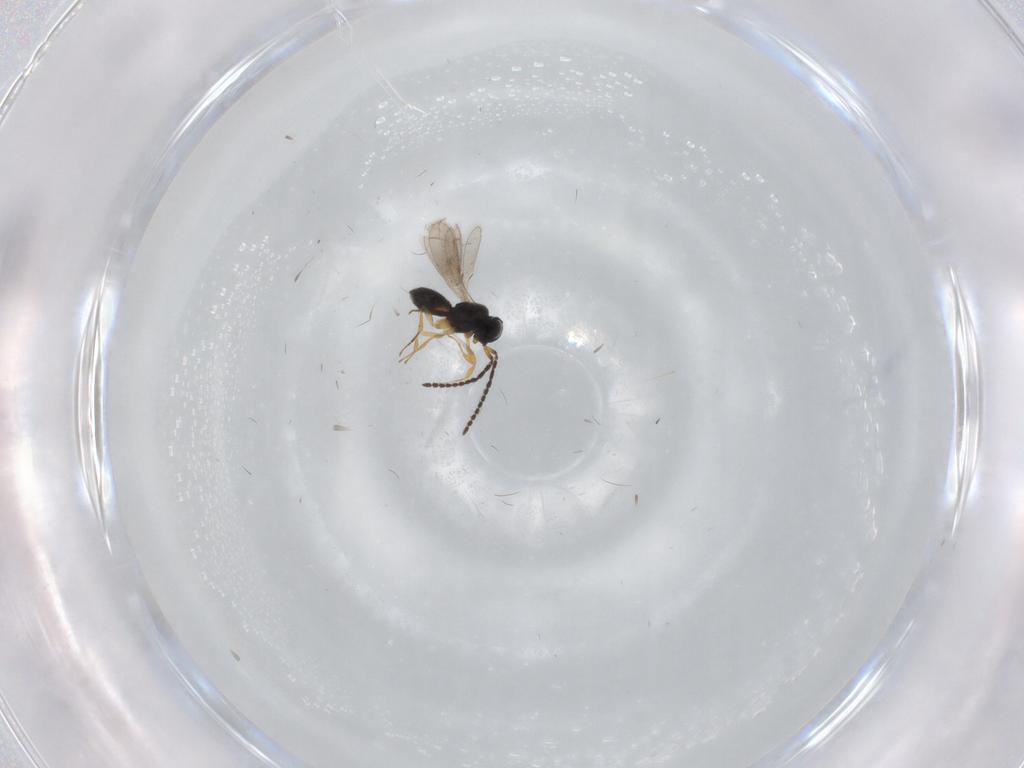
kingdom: Animalia
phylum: Arthropoda
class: Insecta
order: Hymenoptera
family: Scelionidae
